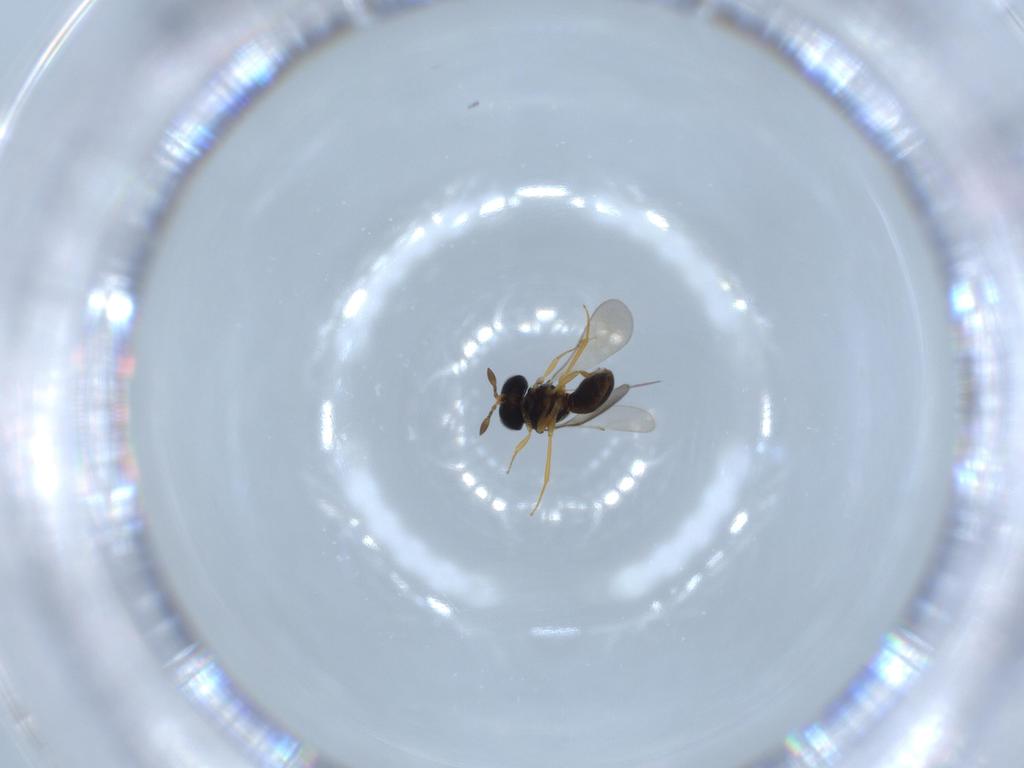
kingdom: Animalia
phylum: Arthropoda
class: Insecta
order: Hymenoptera
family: Scelionidae
